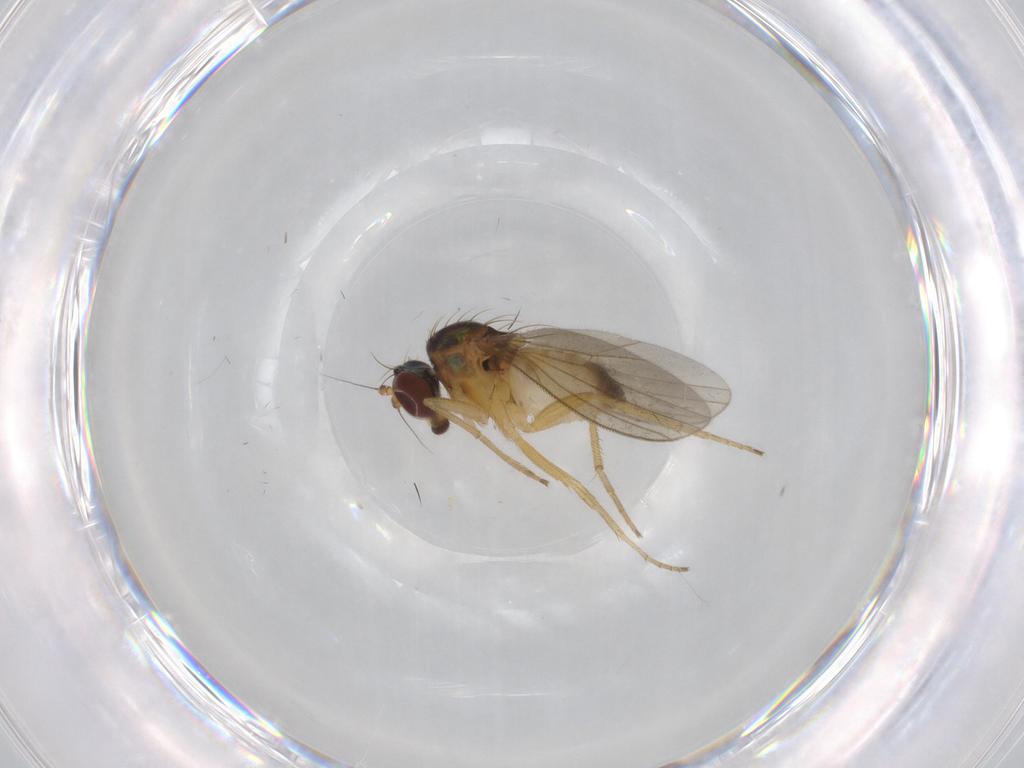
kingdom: Animalia
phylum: Arthropoda
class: Insecta
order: Diptera
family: Dolichopodidae
